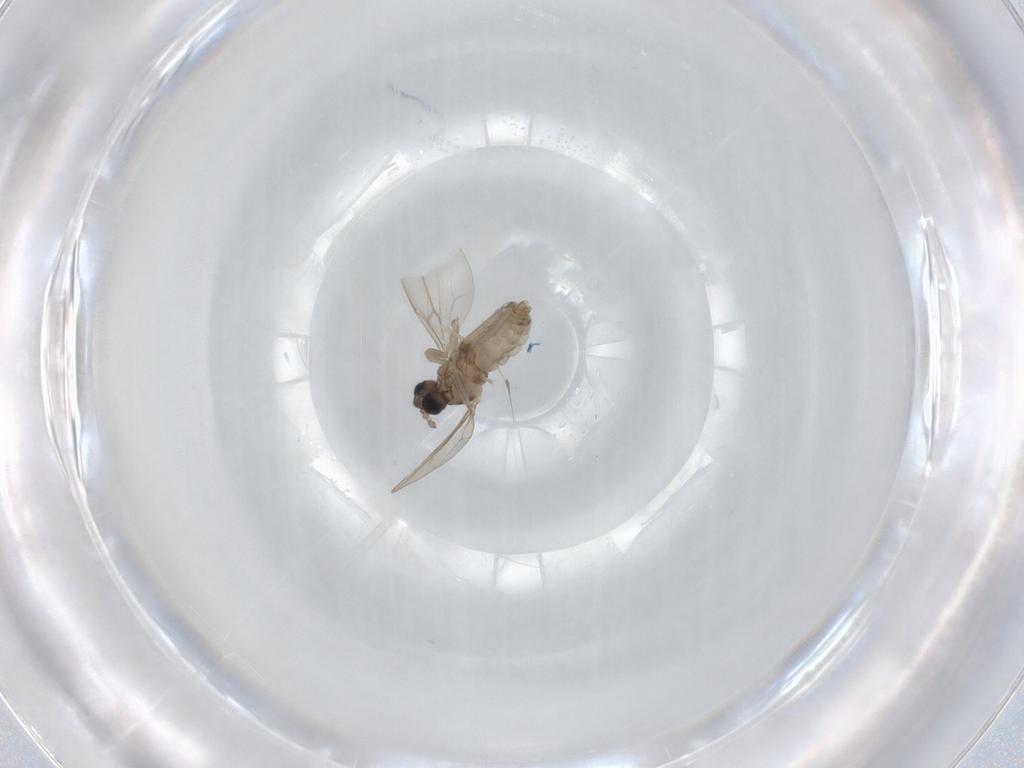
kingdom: Animalia
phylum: Arthropoda
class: Insecta
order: Diptera
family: Cecidomyiidae
